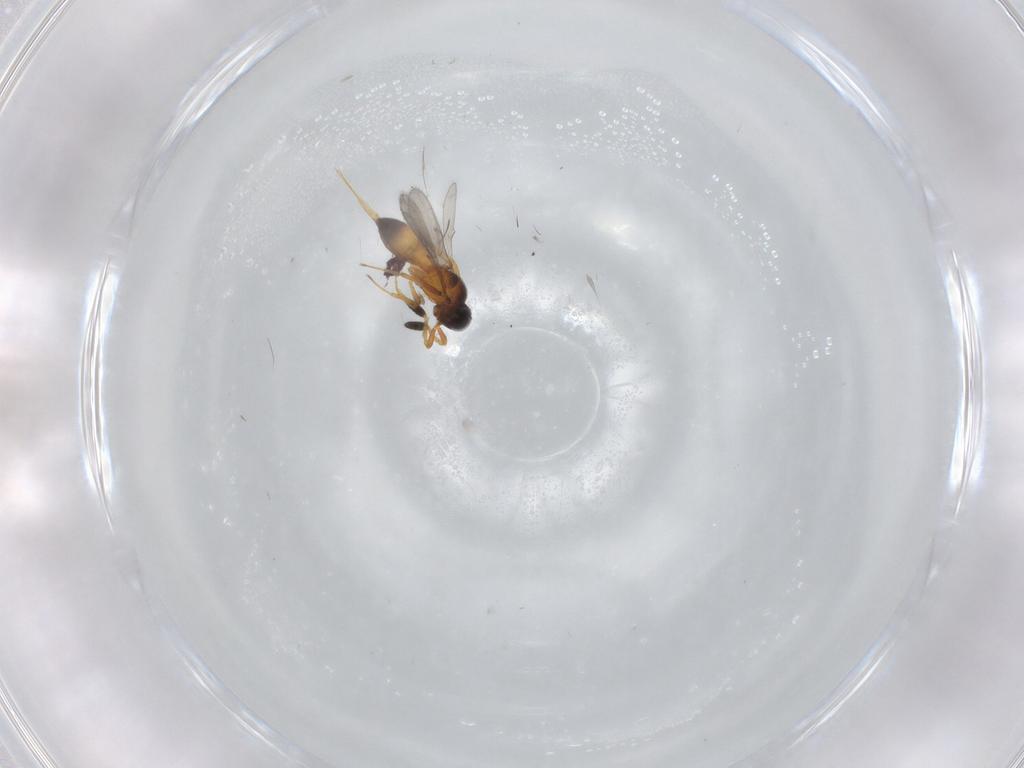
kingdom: Animalia
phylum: Arthropoda
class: Insecta
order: Hymenoptera
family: Scelionidae
